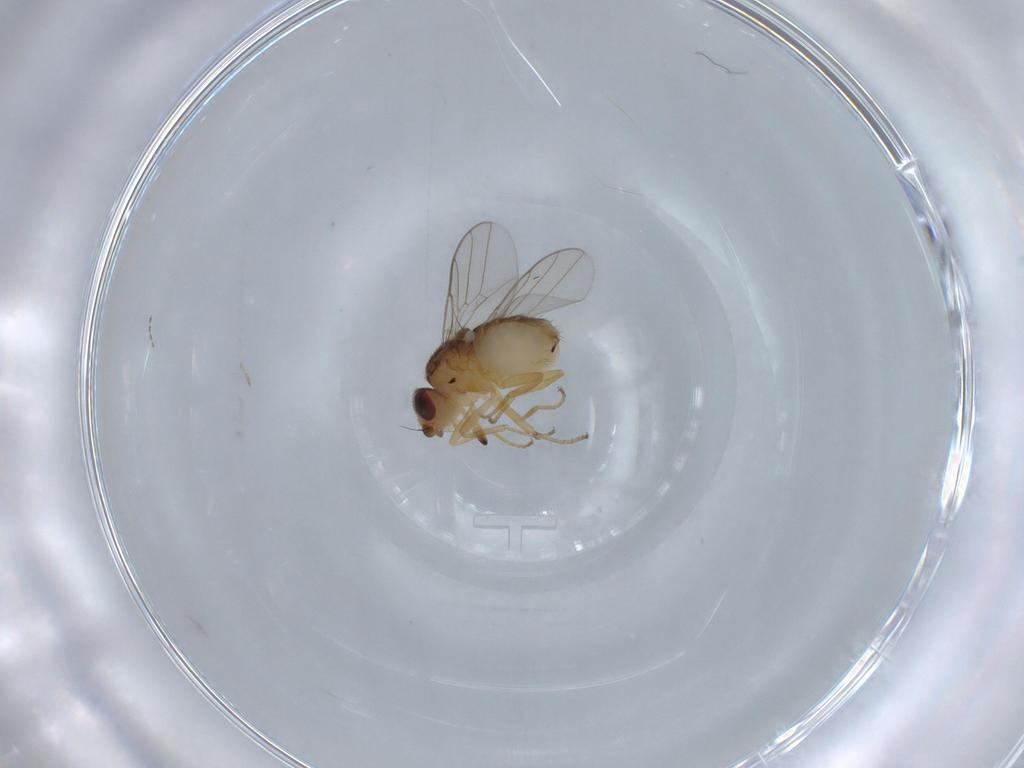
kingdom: Animalia
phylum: Arthropoda
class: Insecta
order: Diptera
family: Chloropidae
